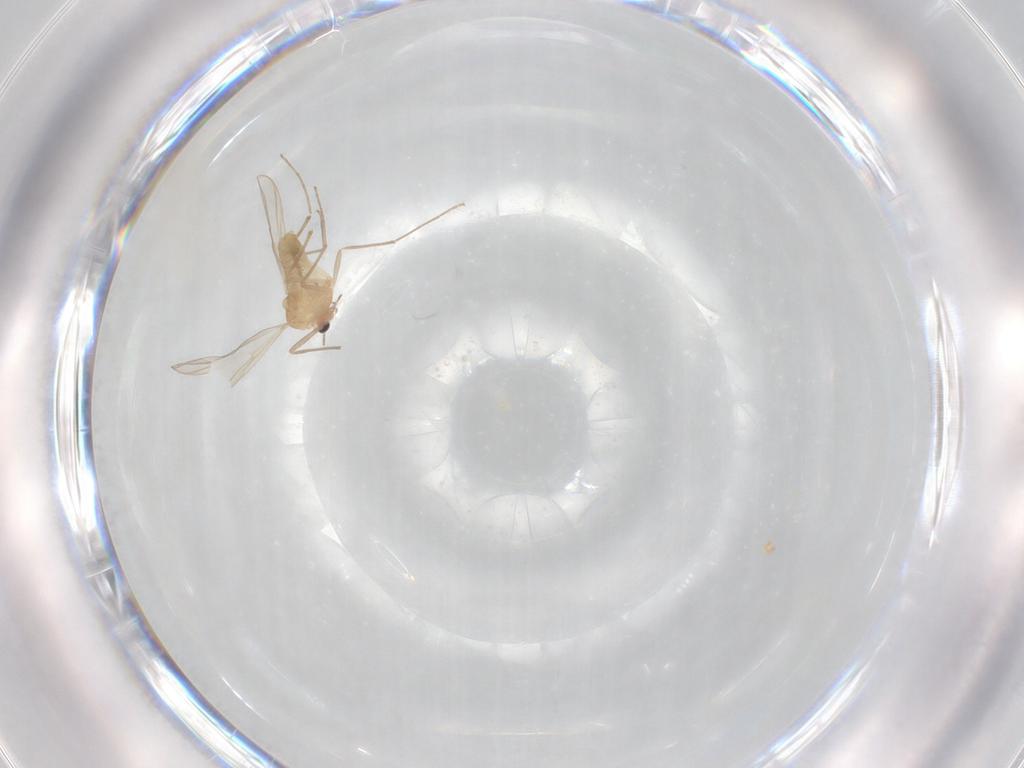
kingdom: Animalia
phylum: Arthropoda
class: Insecta
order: Diptera
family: Chironomidae
